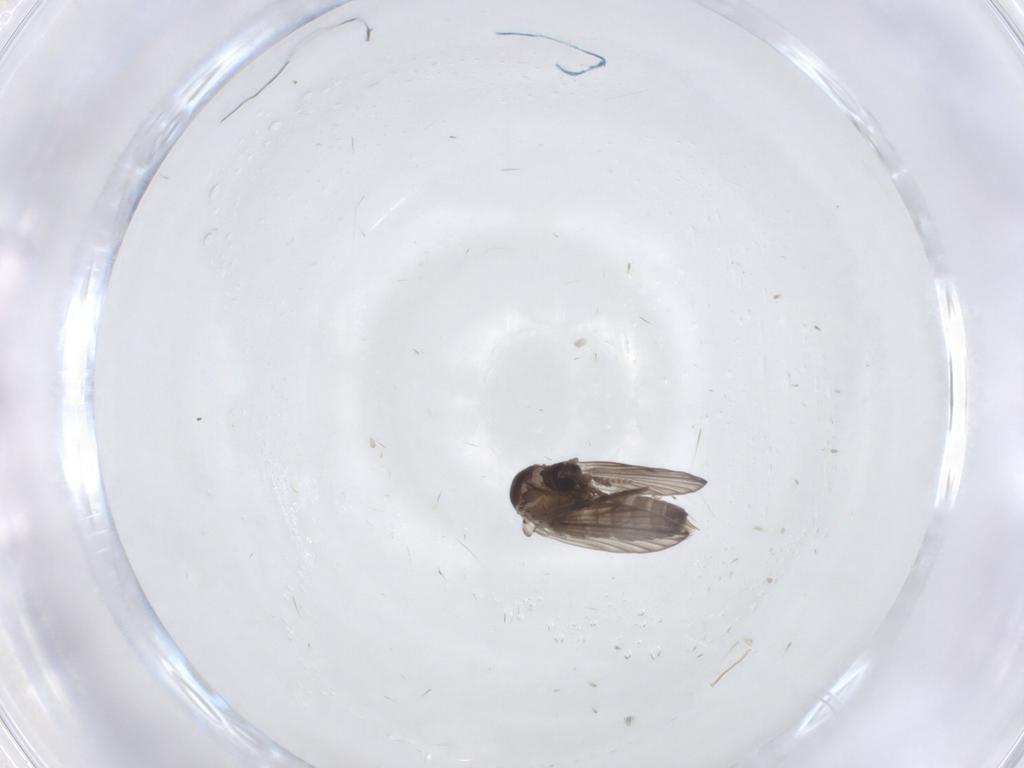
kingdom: Animalia
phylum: Arthropoda
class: Insecta
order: Diptera
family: Psychodidae
